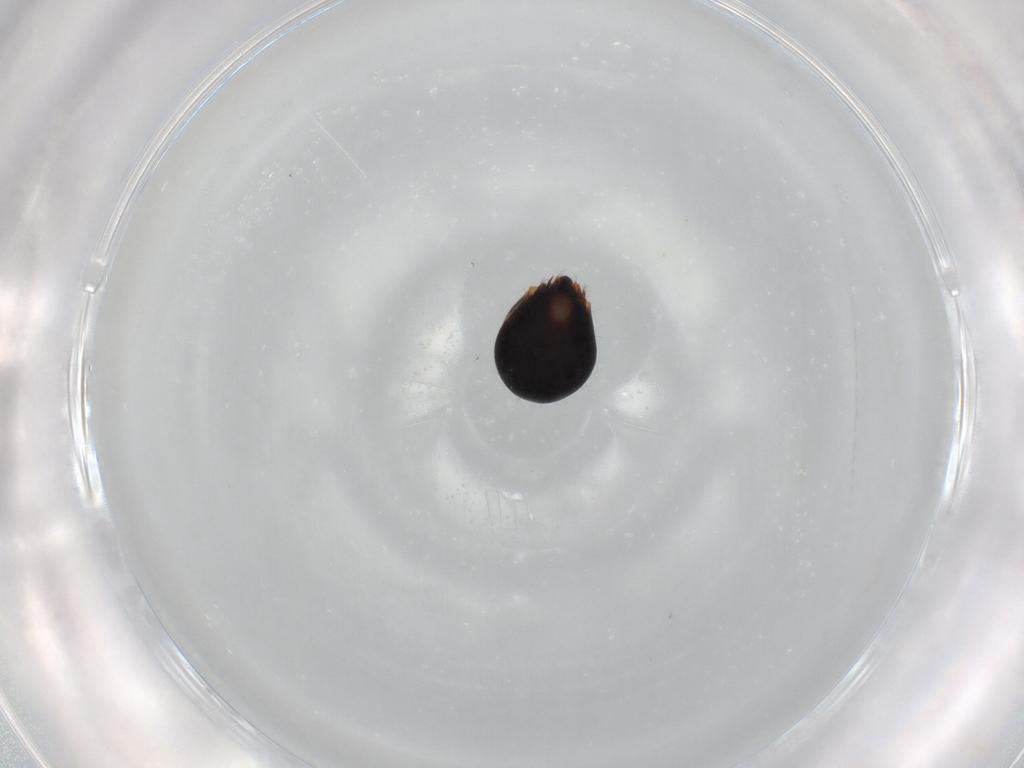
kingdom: Animalia
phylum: Arthropoda
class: Arachnida
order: Sarcoptiformes
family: Ceratozetidae
